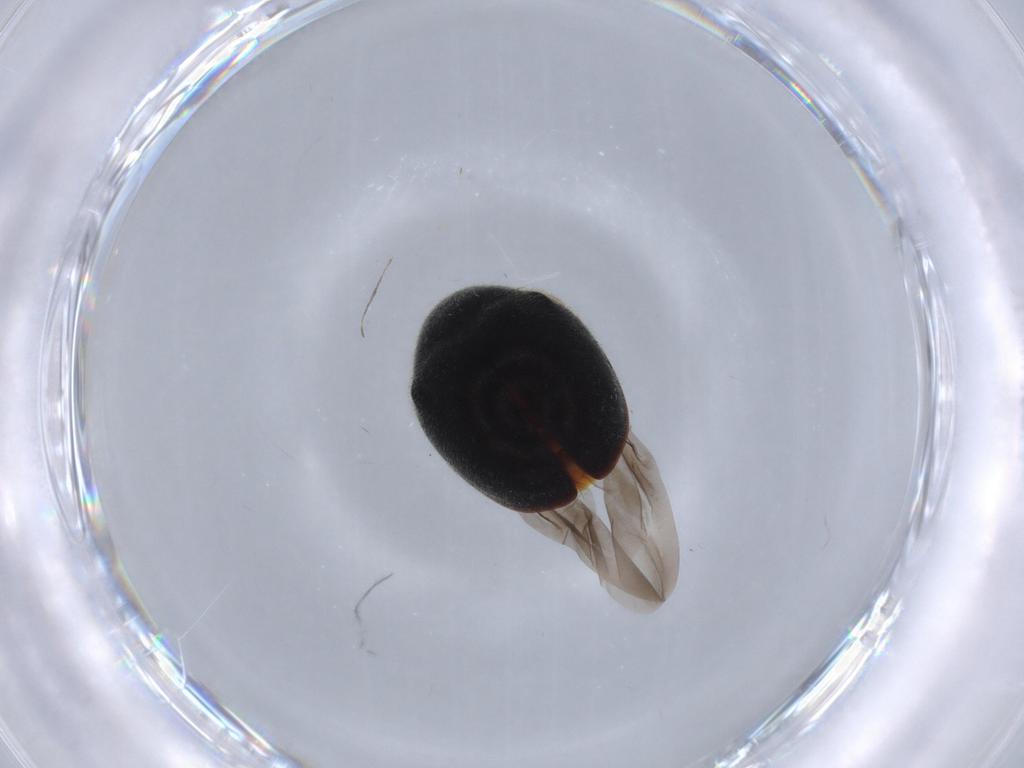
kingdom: Animalia
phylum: Arthropoda
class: Insecta
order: Coleoptera
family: Coccinellidae
